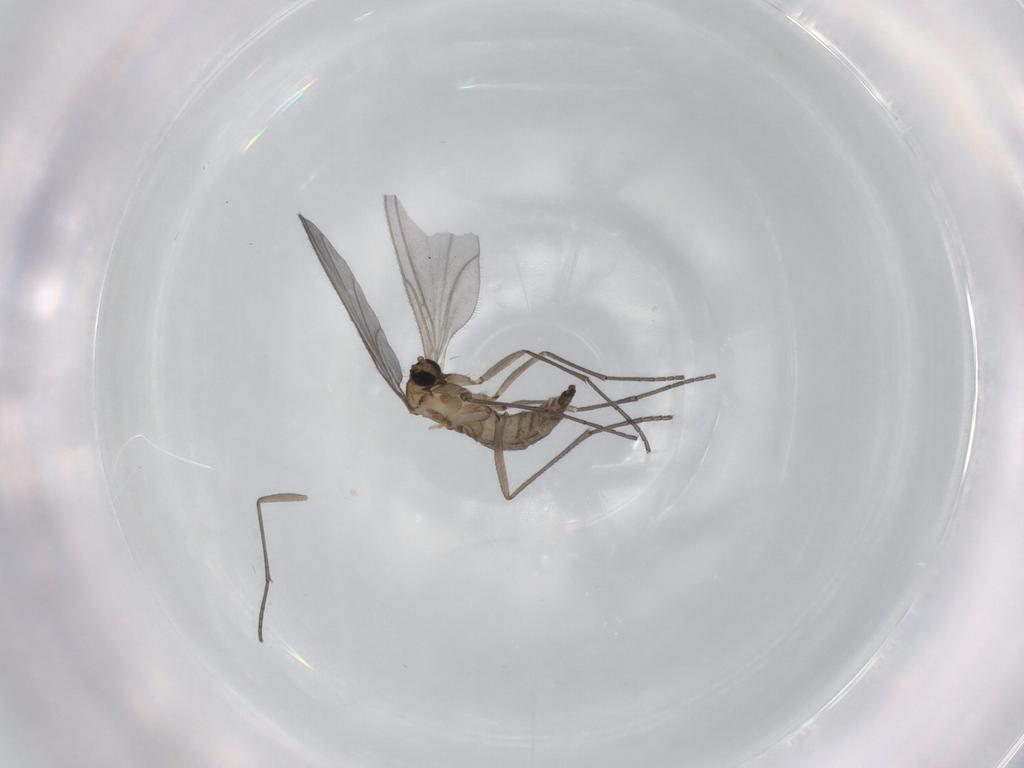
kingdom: Animalia
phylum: Arthropoda
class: Insecta
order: Diptera
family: Sciaridae
